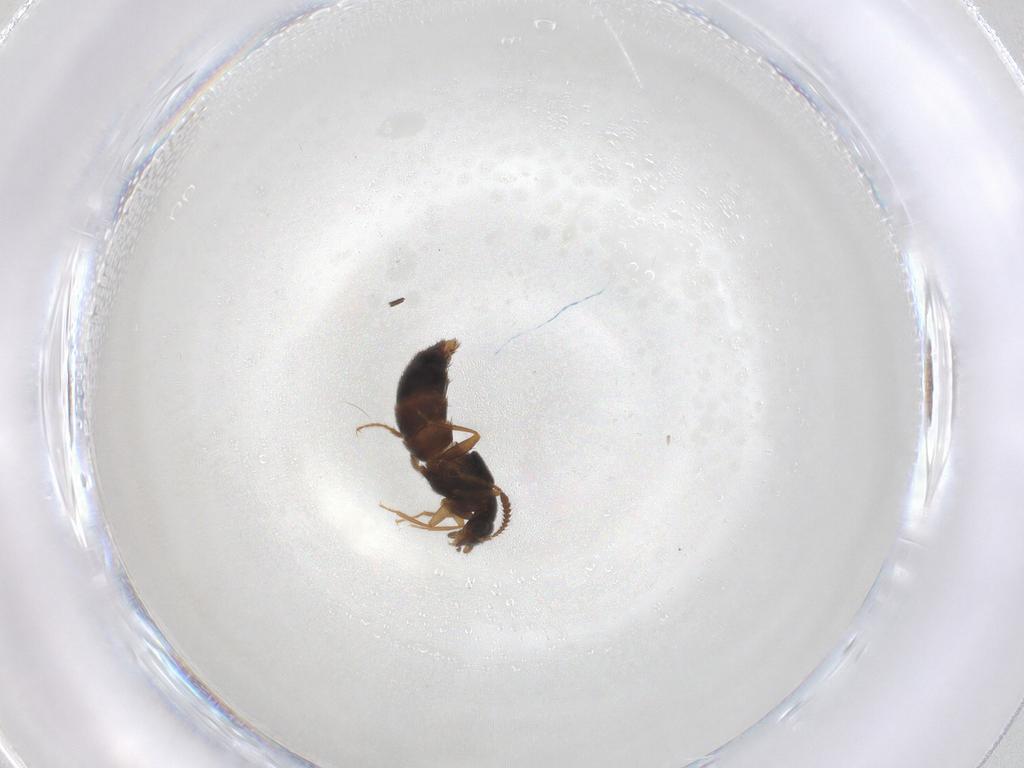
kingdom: Animalia
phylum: Arthropoda
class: Insecta
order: Coleoptera
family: Staphylinidae
